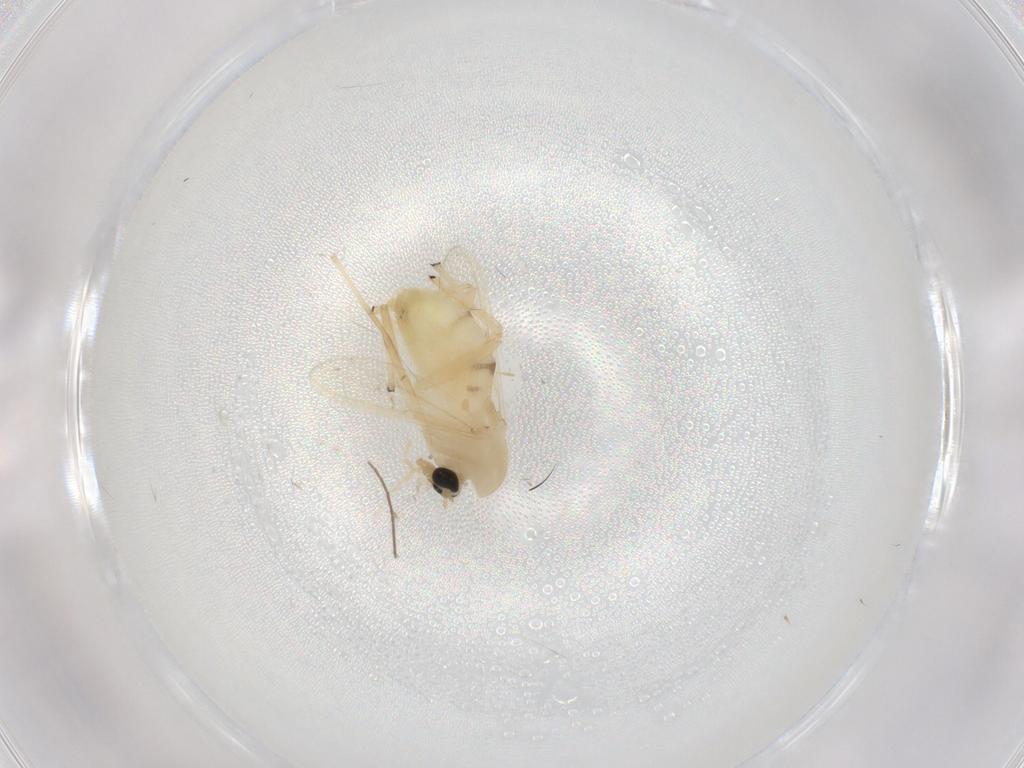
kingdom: Animalia
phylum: Arthropoda
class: Insecta
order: Diptera
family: Chironomidae
